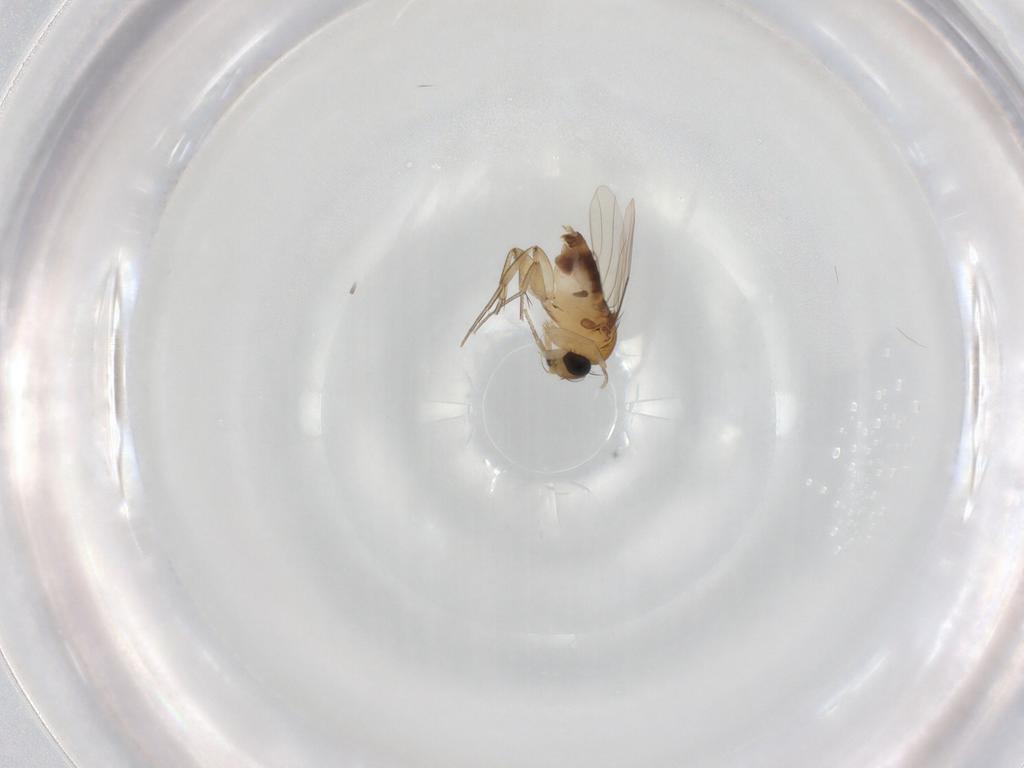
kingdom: Animalia
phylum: Arthropoda
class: Insecta
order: Diptera
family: Phoridae
